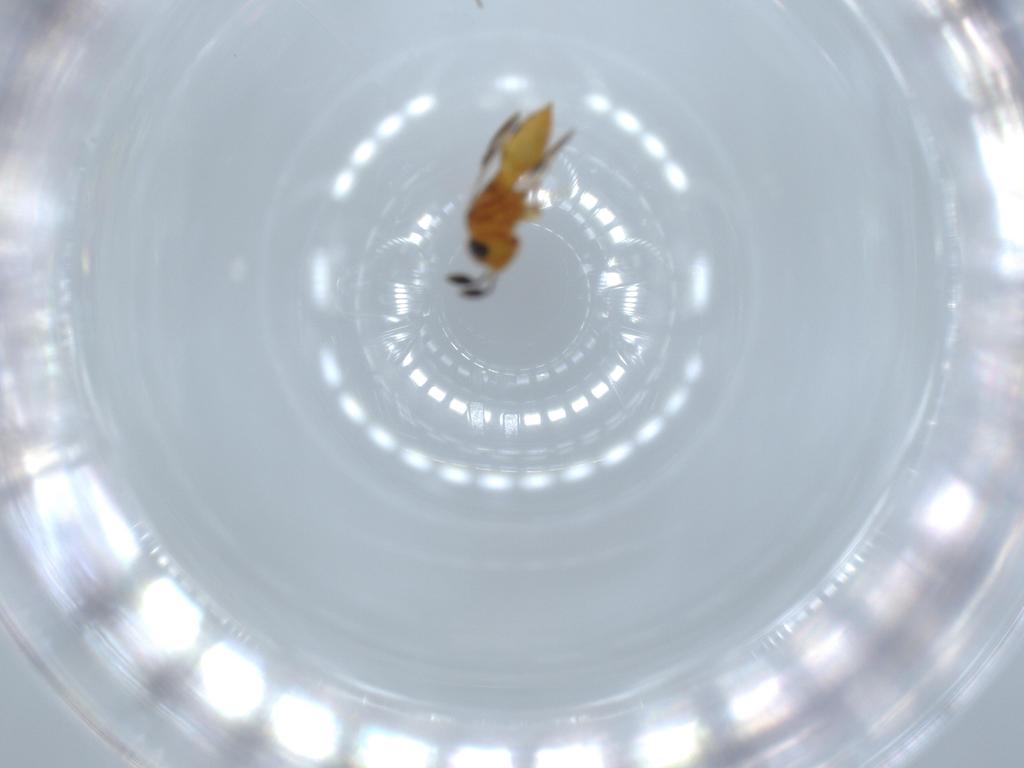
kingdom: Animalia
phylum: Arthropoda
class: Insecta
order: Hymenoptera
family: Scelionidae
